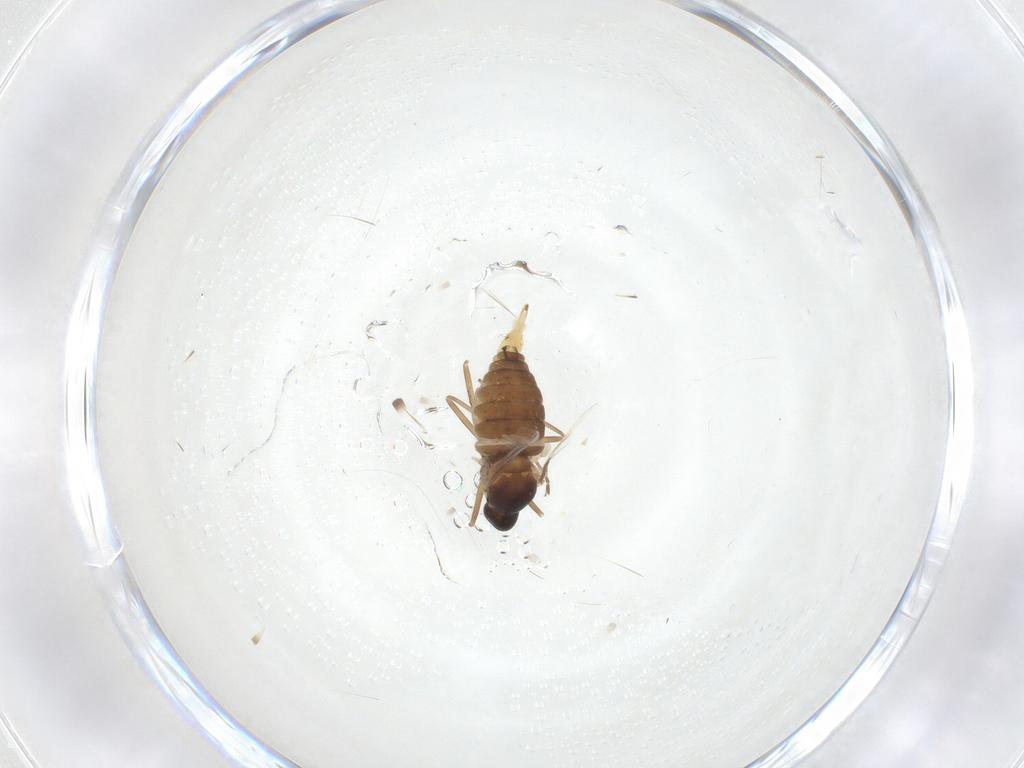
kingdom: Animalia
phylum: Arthropoda
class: Insecta
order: Diptera
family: Cecidomyiidae
